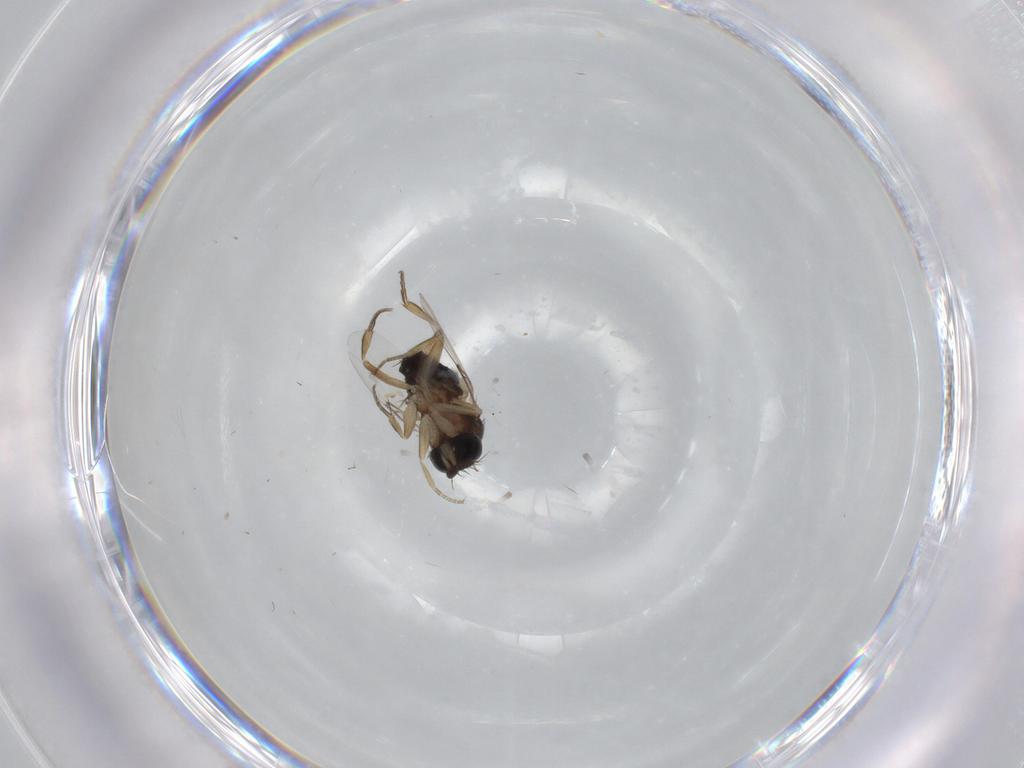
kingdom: Animalia
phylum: Arthropoda
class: Insecta
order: Diptera
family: Phoridae
